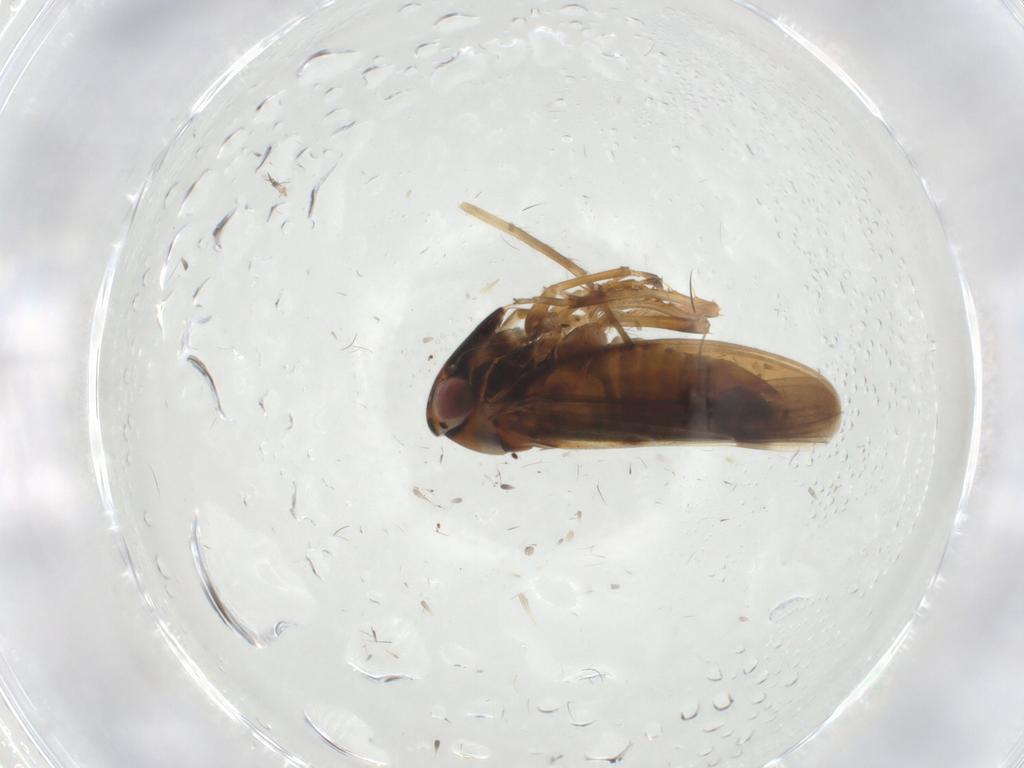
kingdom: Animalia
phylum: Arthropoda
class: Insecta
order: Hemiptera
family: Cicadellidae
